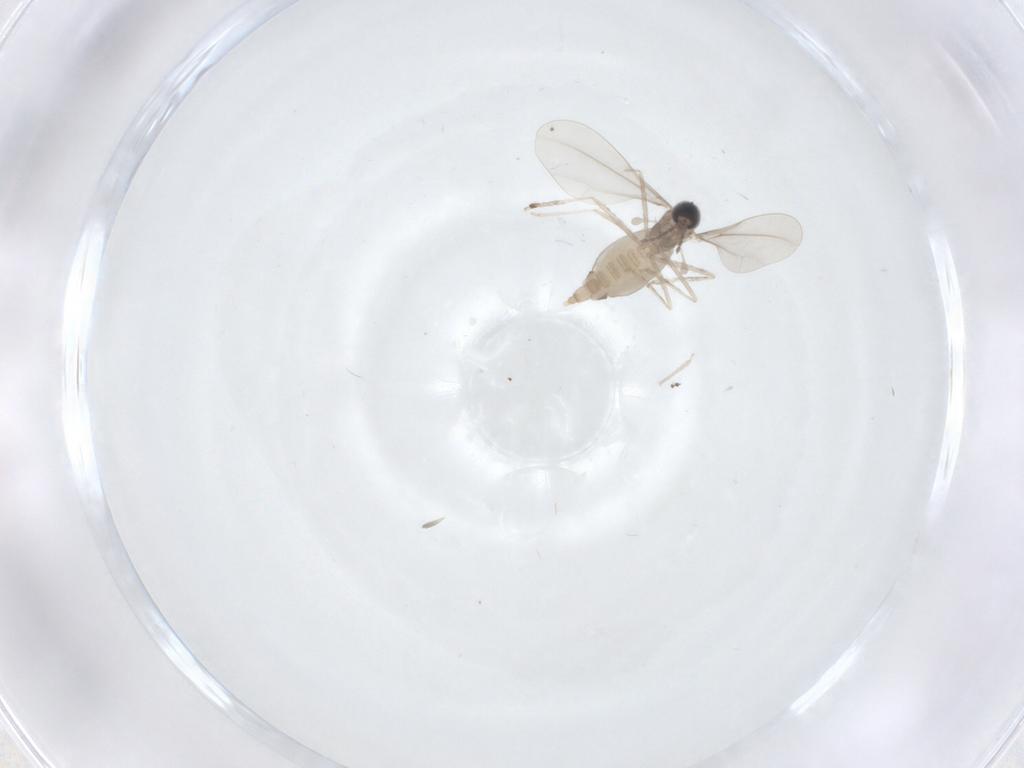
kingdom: Animalia
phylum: Arthropoda
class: Insecta
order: Diptera
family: Cecidomyiidae
